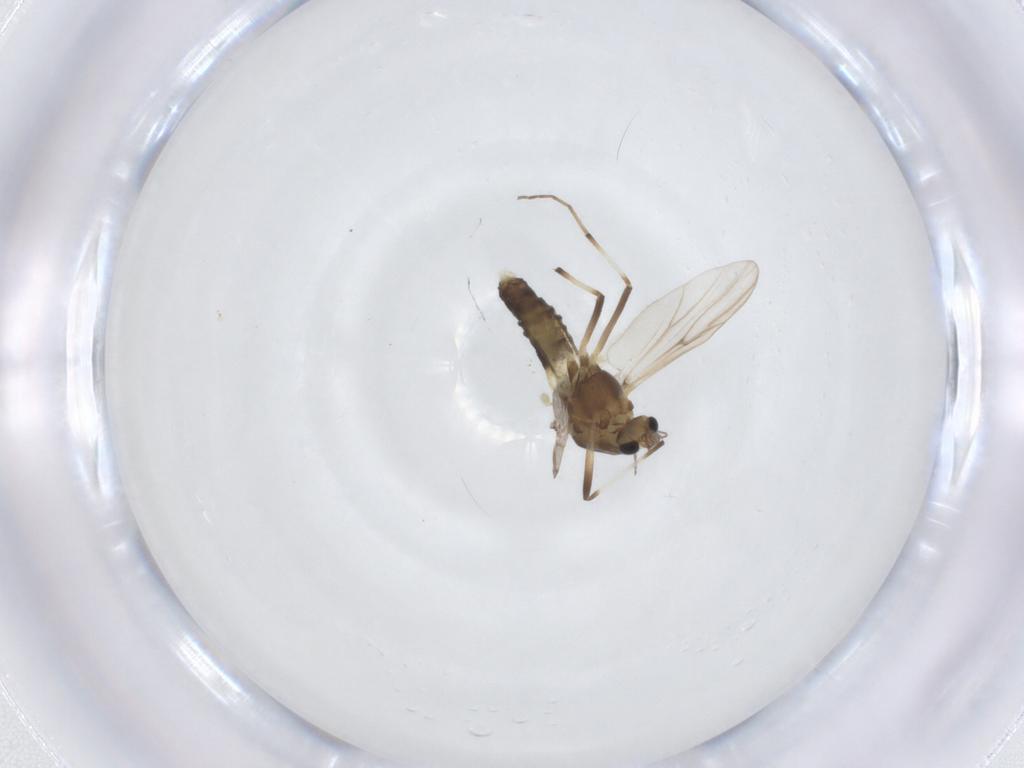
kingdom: Animalia
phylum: Arthropoda
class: Insecta
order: Diptera
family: Chironomidae
